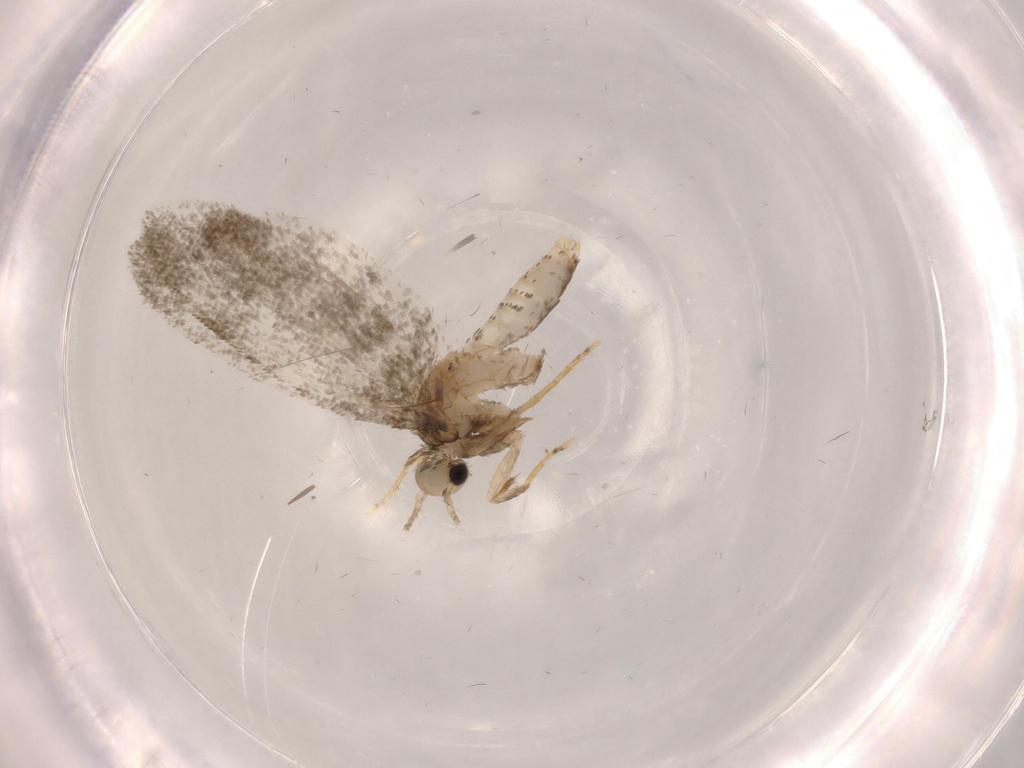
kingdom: Animalia
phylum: Arthropoda
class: Insecta
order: Lepidoptera
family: Psychidae
